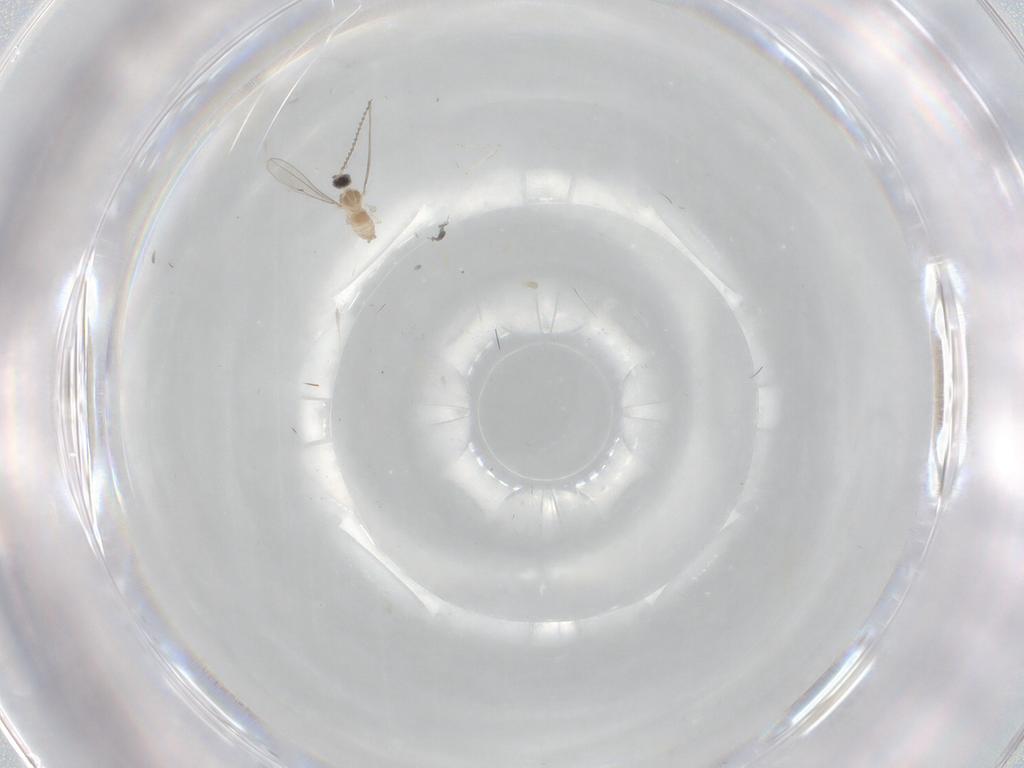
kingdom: Animalia
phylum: Arthropoda
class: Insecta
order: Diptera
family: Cecidomyiidae
